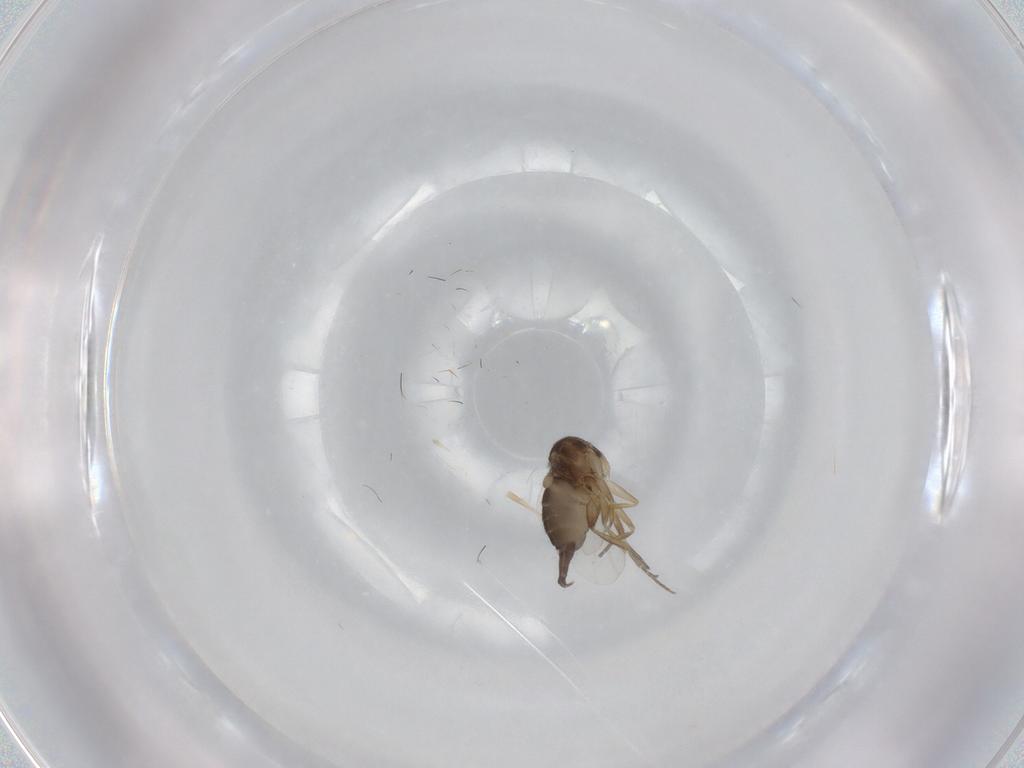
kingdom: Animalia
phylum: Arthropoda
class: Insecta
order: Diptera
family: Phoridae
